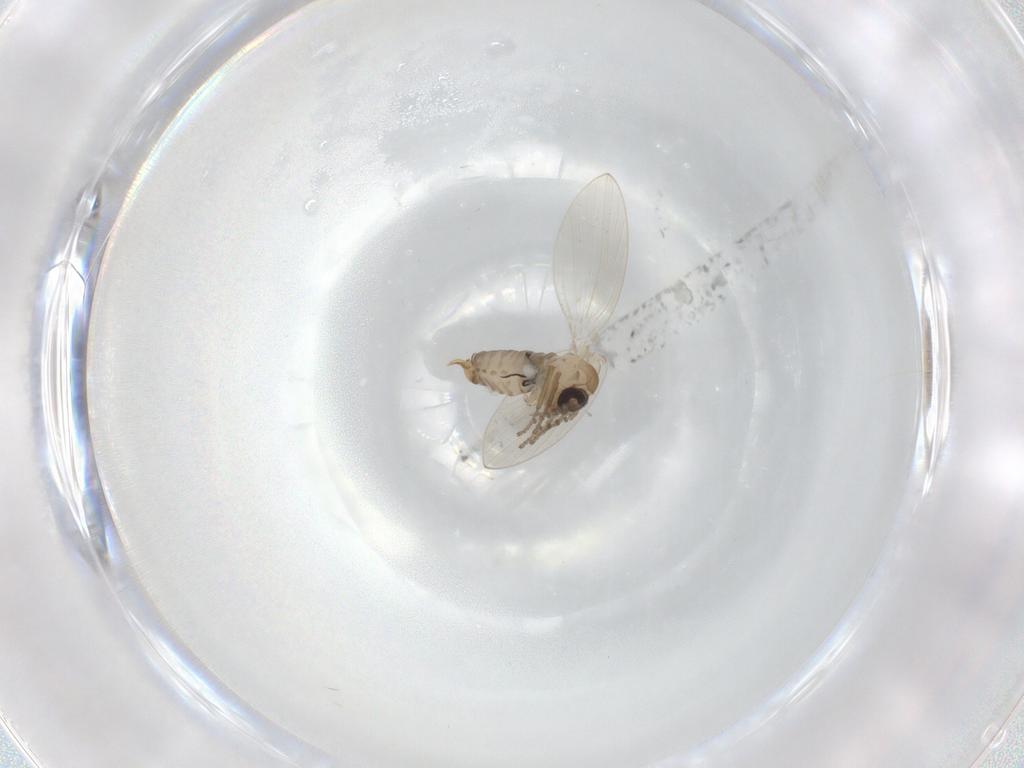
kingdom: Animalia
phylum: Arthropoda
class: Insecta
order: Diptera
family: Psychodidae
